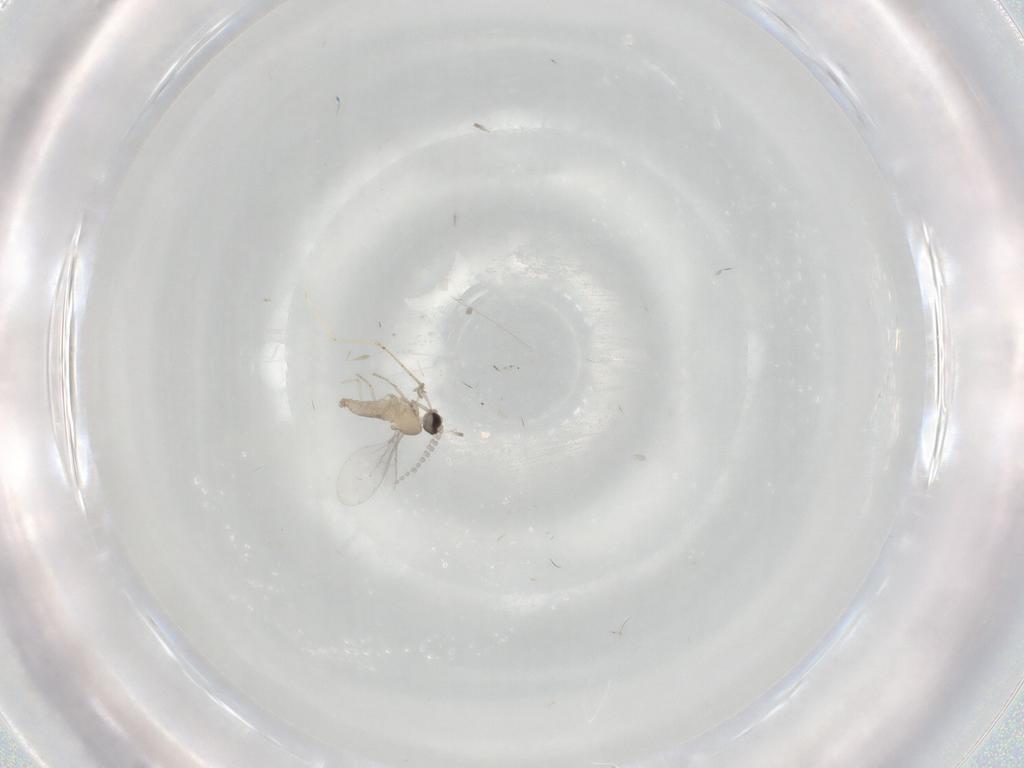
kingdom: Animalia
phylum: Arthropoda
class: Insecta
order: Diptera
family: Cecidomyiidae
